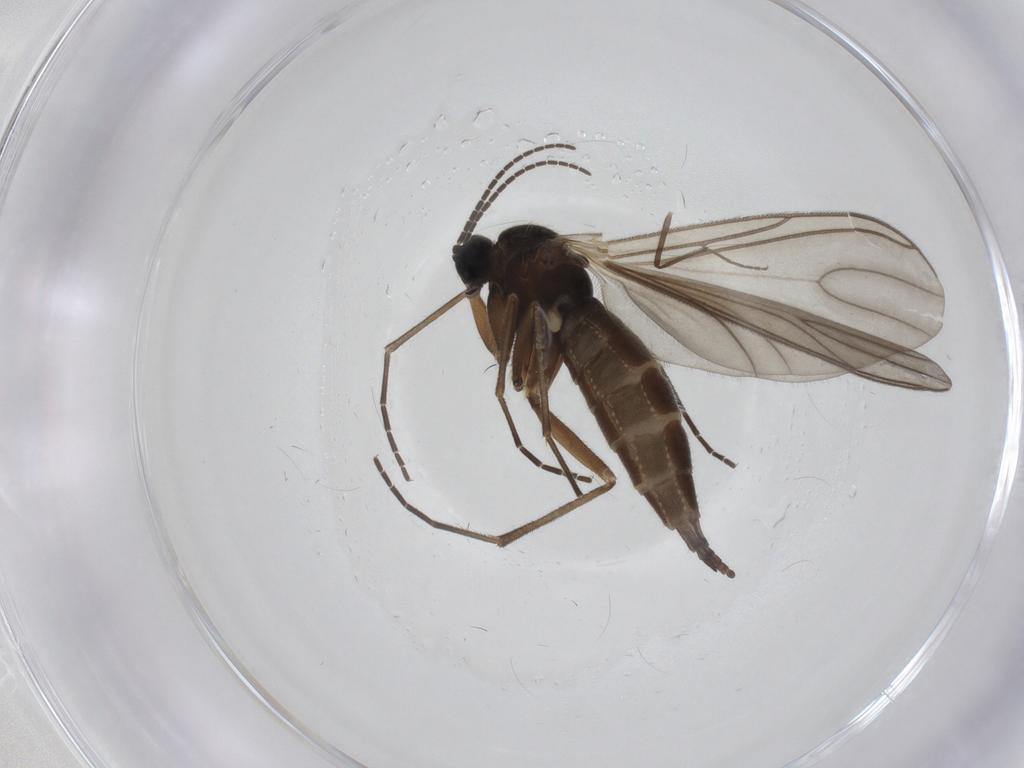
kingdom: Animalia
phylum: Arthropoda
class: Insecta
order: Diptera
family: Sciaridae
